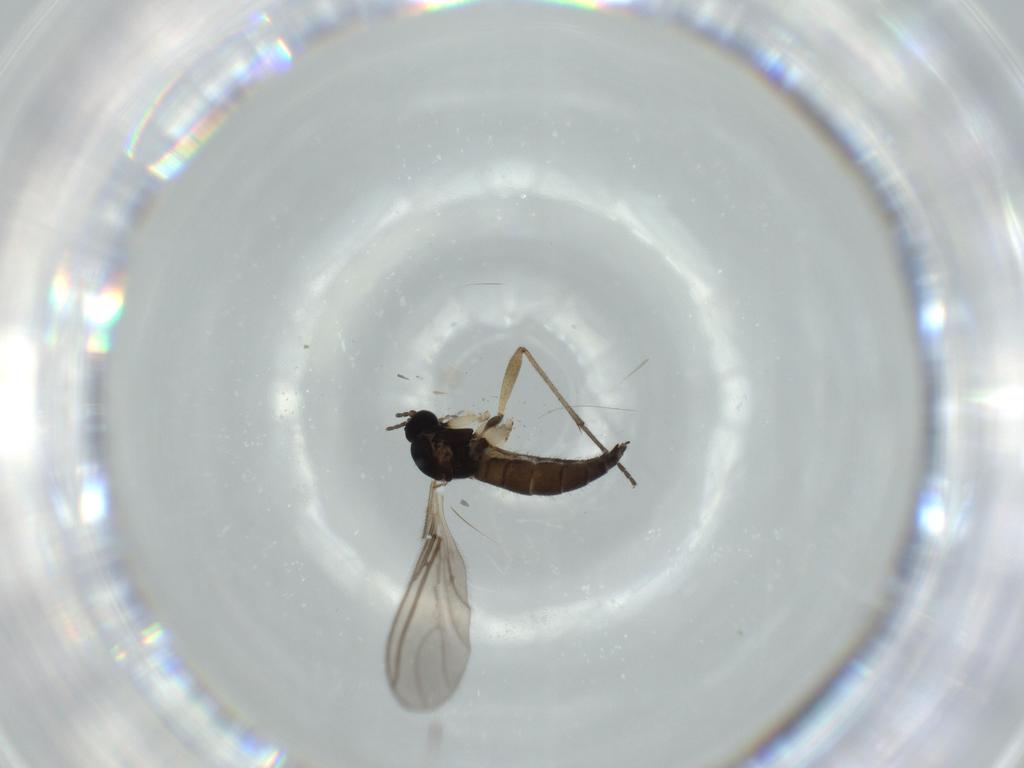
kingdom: Animalia
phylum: Arthropoda
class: Insecta
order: Diptera
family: Sciaridae
